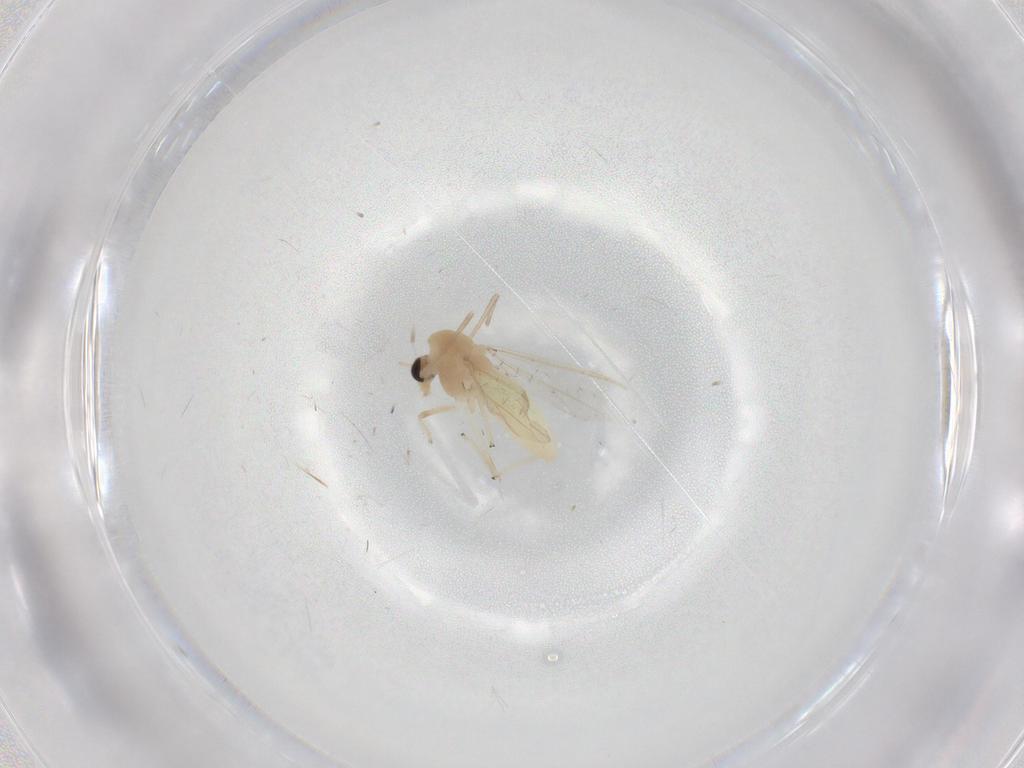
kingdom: Animalia
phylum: Arthropoda
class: Insecta
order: Diptera
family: Chironomidae
